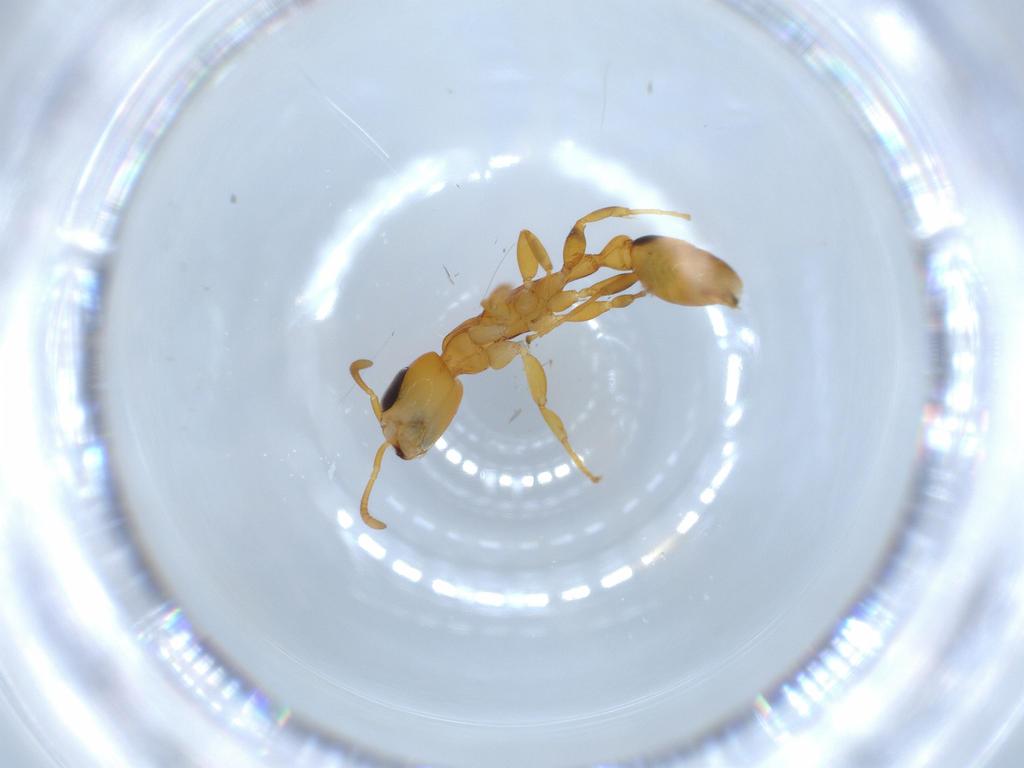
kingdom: Animalia
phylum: Arthropoda
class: Insecta
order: Hymenoptera
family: Formicidae
